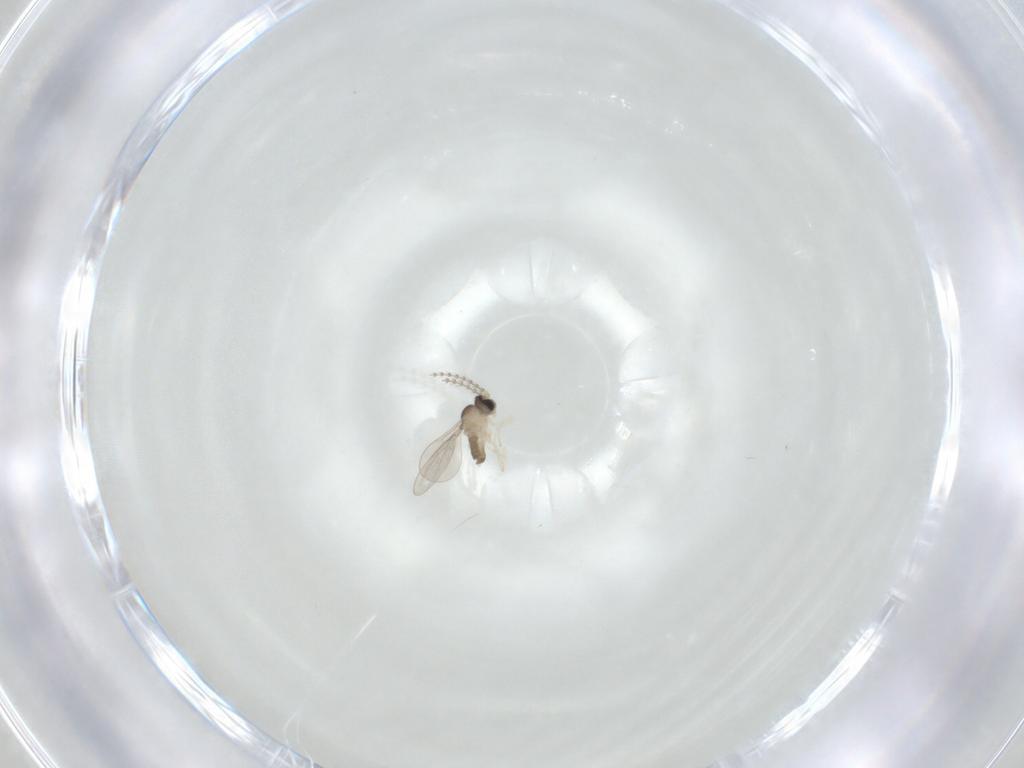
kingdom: Animalia
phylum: Arthropoda
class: Insecta
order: Diptera
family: Cecidomyiidae
